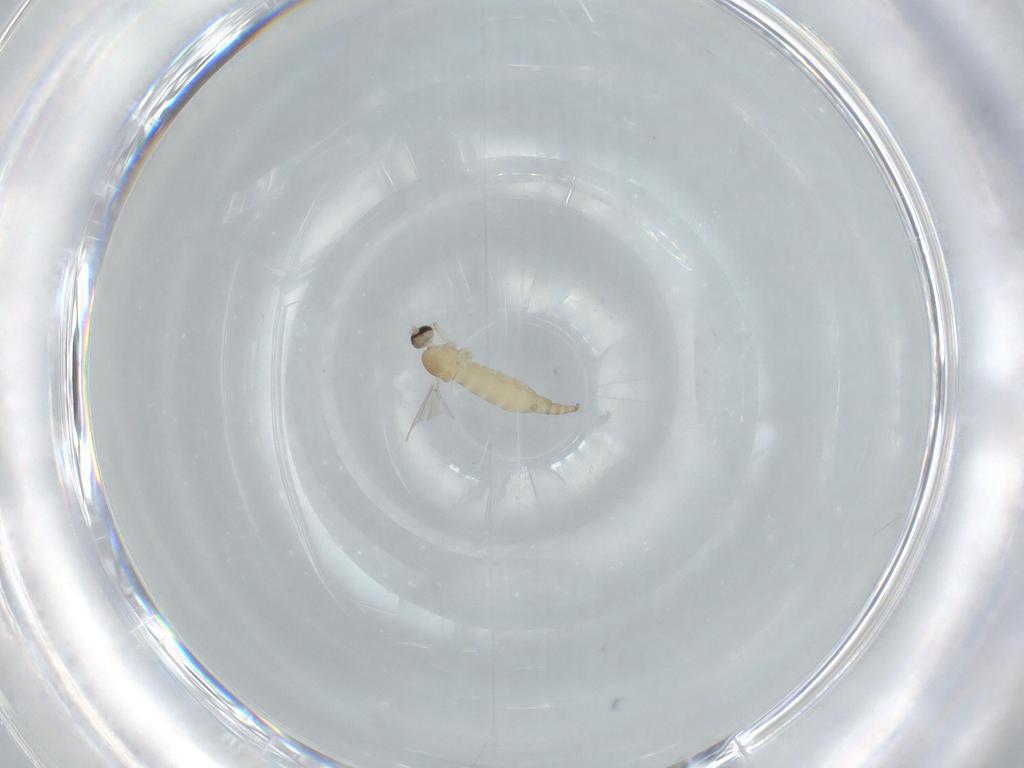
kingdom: Animalia
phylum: Arthropoda
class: Insecta
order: Diptera
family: Cecidomyiidae
